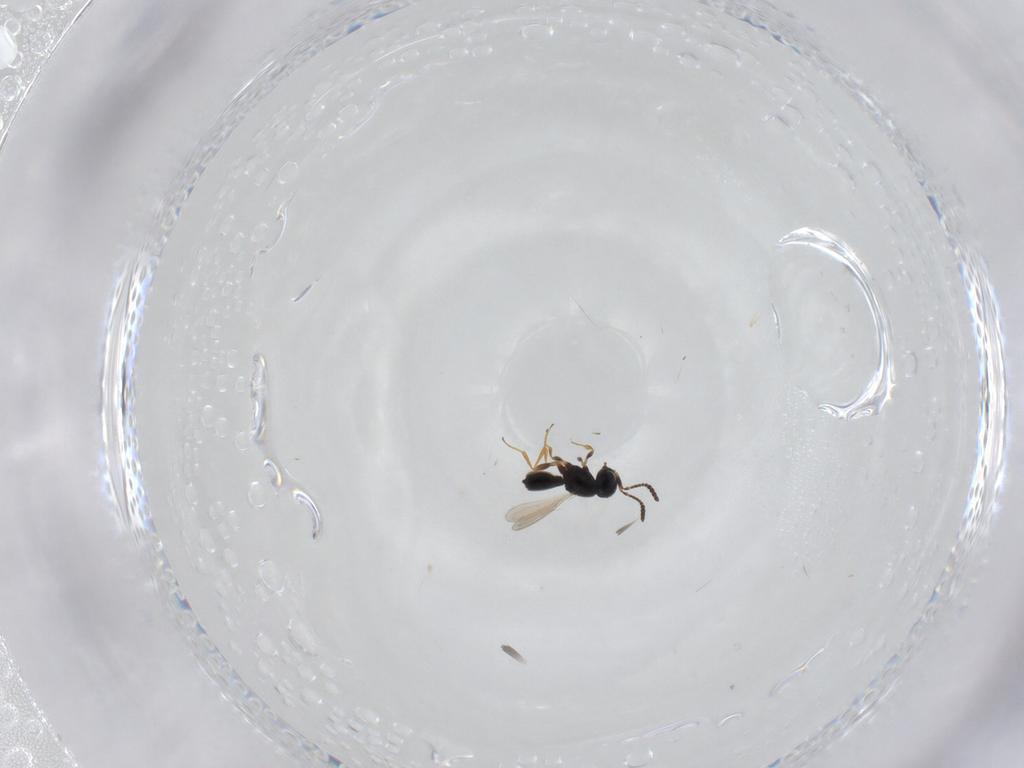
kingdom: Animalia
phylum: Arthropoda
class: Insecta
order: Hymenoptera
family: Scelionidae
